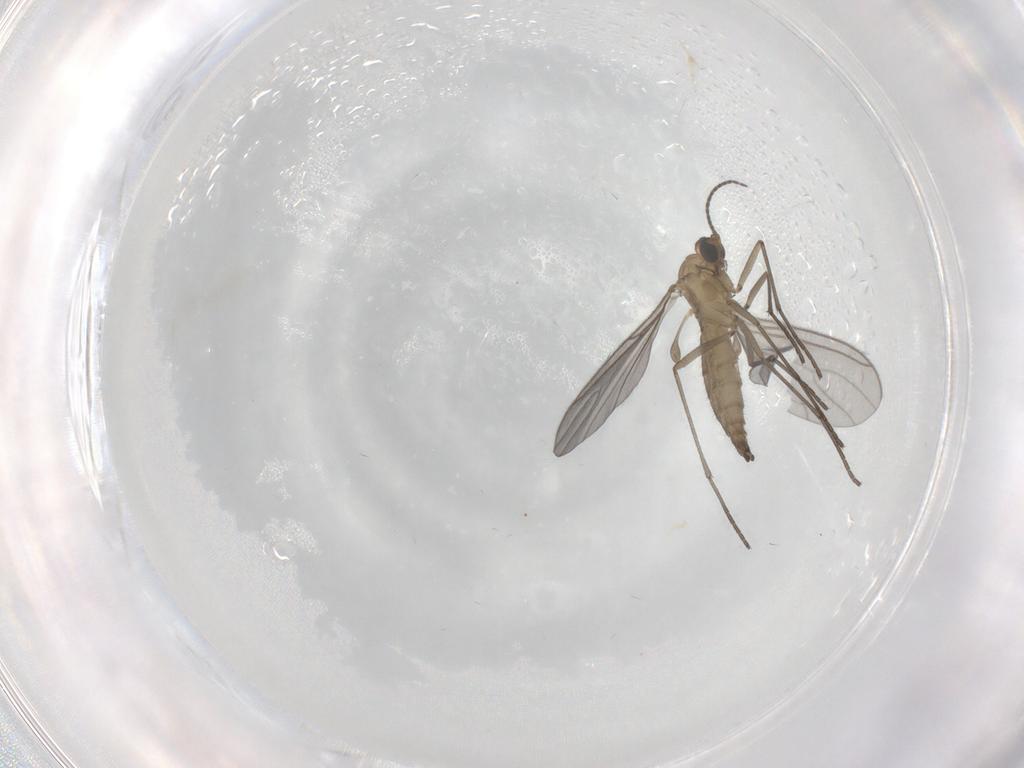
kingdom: Animalia
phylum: Arthropoda
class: Insecta
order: Diptera
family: Sciaridae
